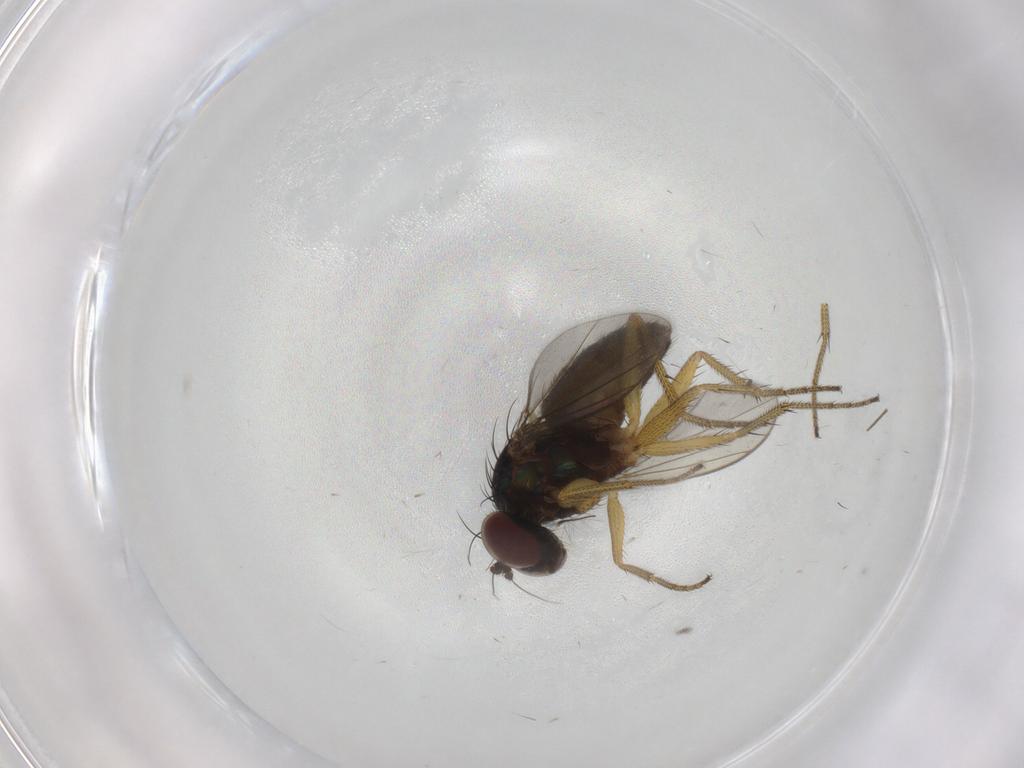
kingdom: Animalia
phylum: Arthropoda
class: Insecta
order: Diptera
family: Chironomidae
